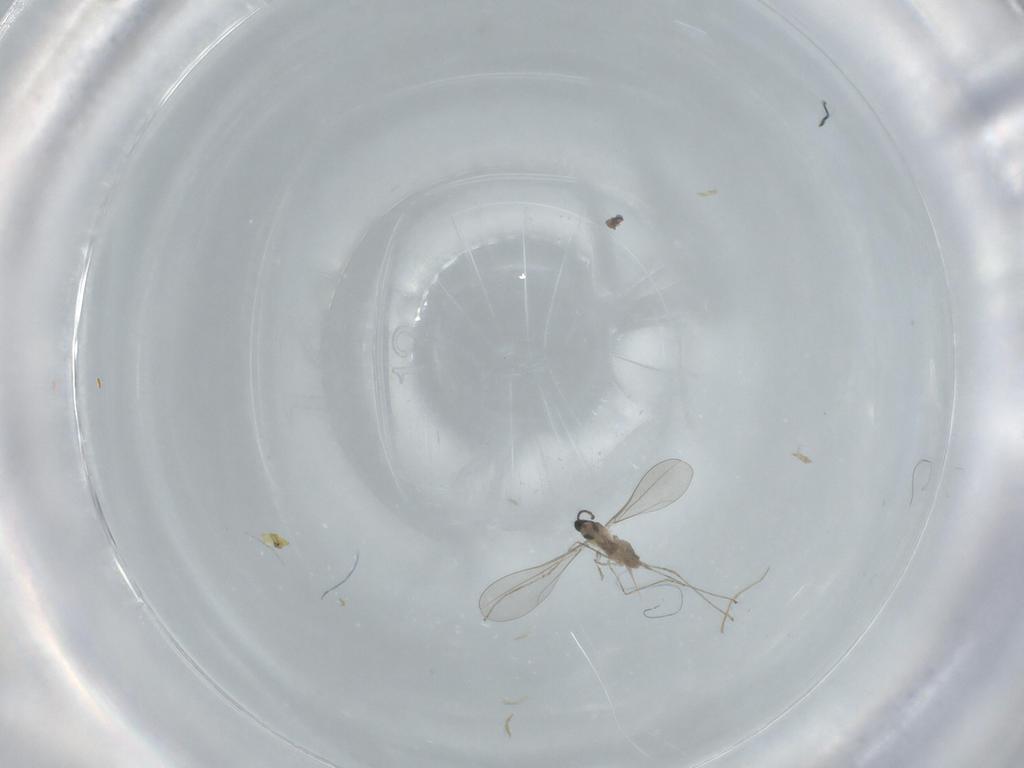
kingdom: Animalia
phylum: Arthropoda
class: Insecta
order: Diptera
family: Cecidomyiidae
